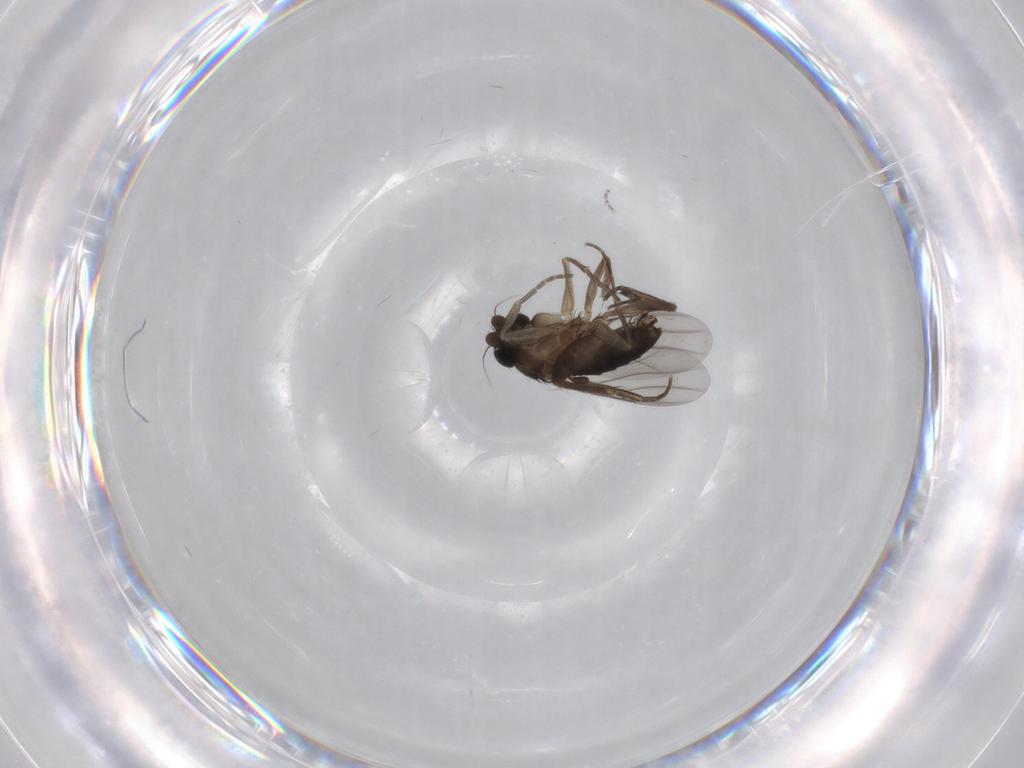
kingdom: Animalia
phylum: Arthropoda
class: Insecta
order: Diptera
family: Phoridae
